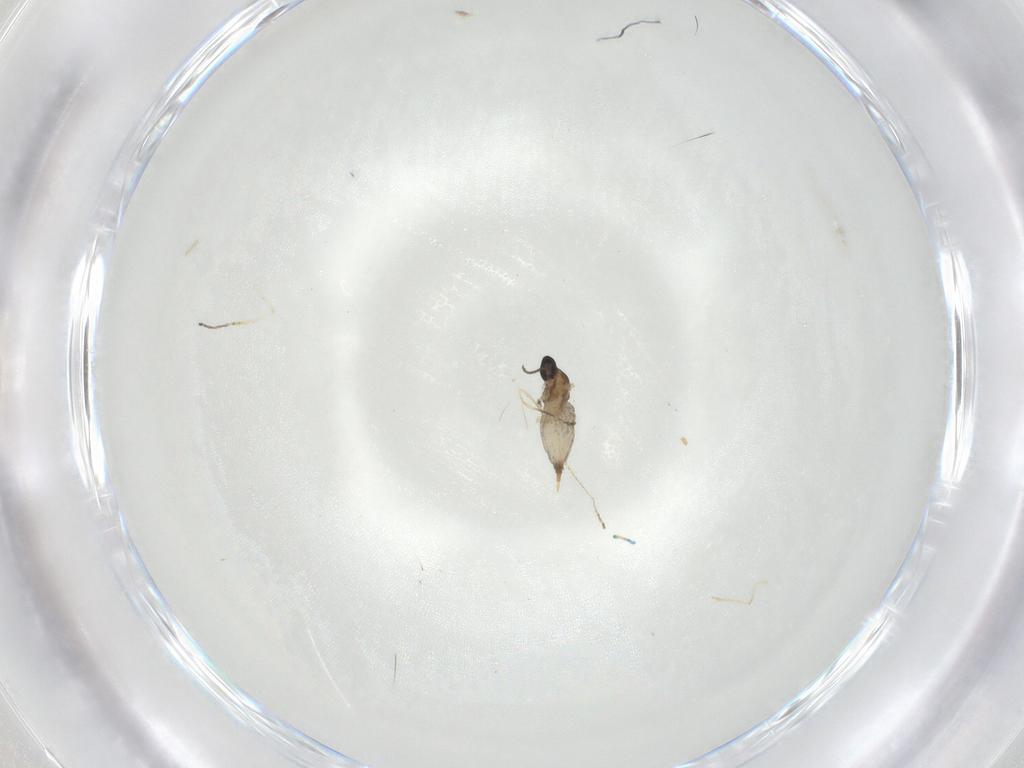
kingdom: Animalia
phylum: Arthropoda
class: Insecta
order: Diptera
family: Cecidomyiidae
